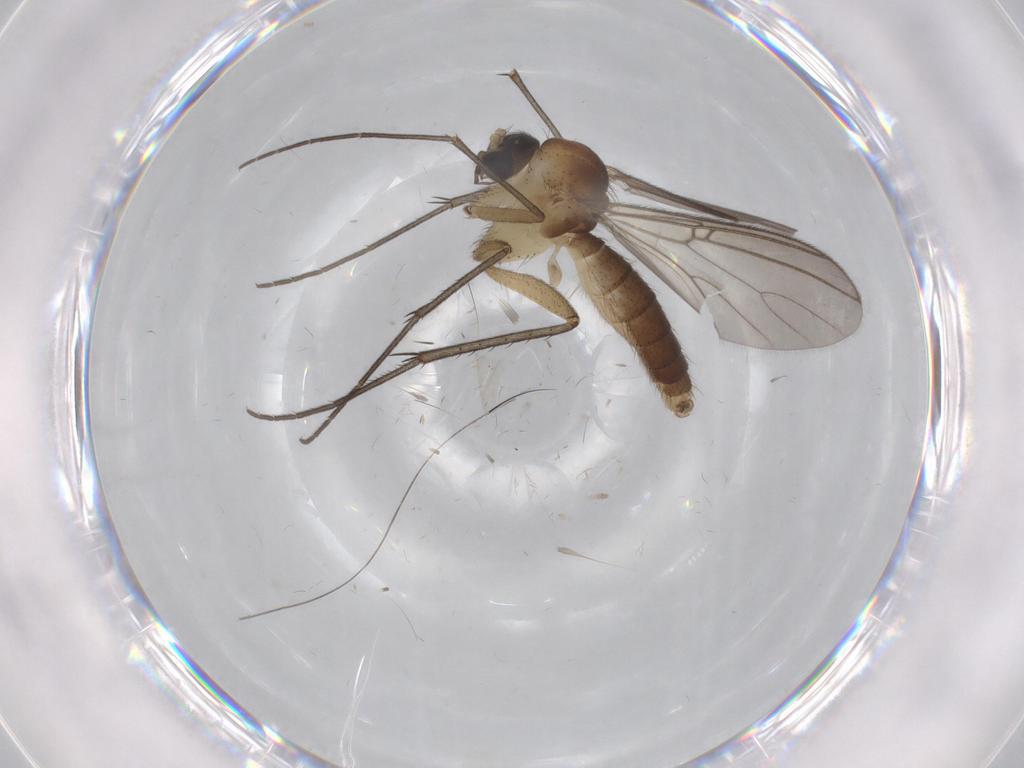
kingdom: Animalia
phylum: Arthropoda
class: Insecta
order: Diptera
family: Cecidomyiidae
